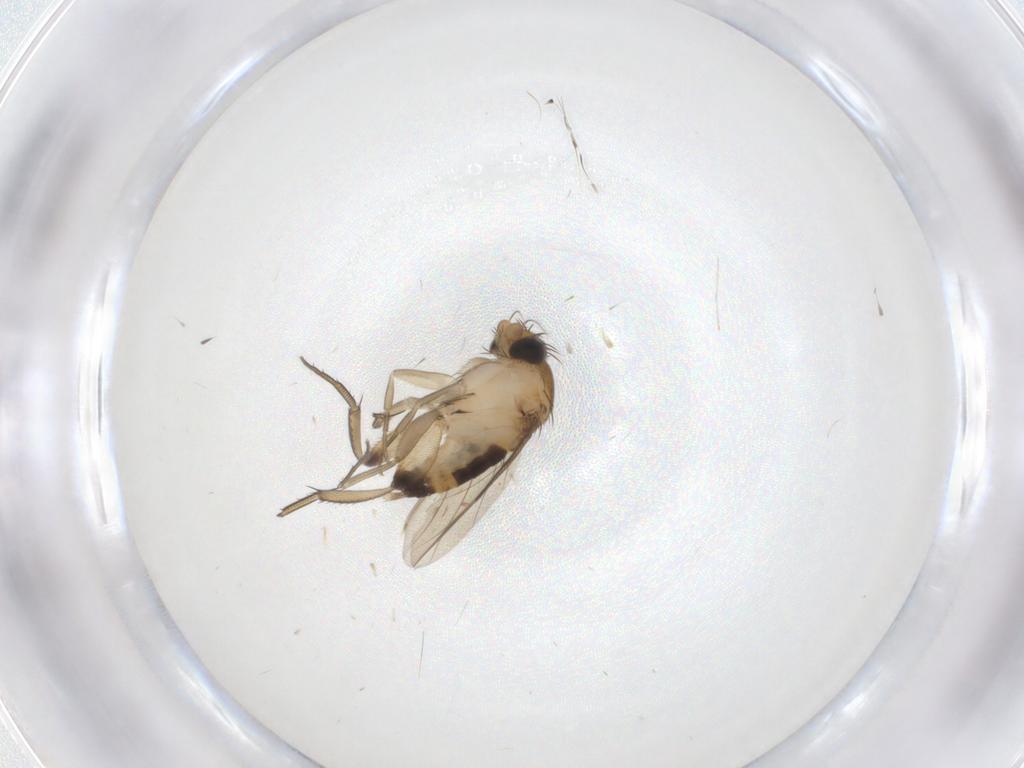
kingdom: Animalia
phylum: Arthropoda
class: Insecta
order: Diptera
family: Phoridae
